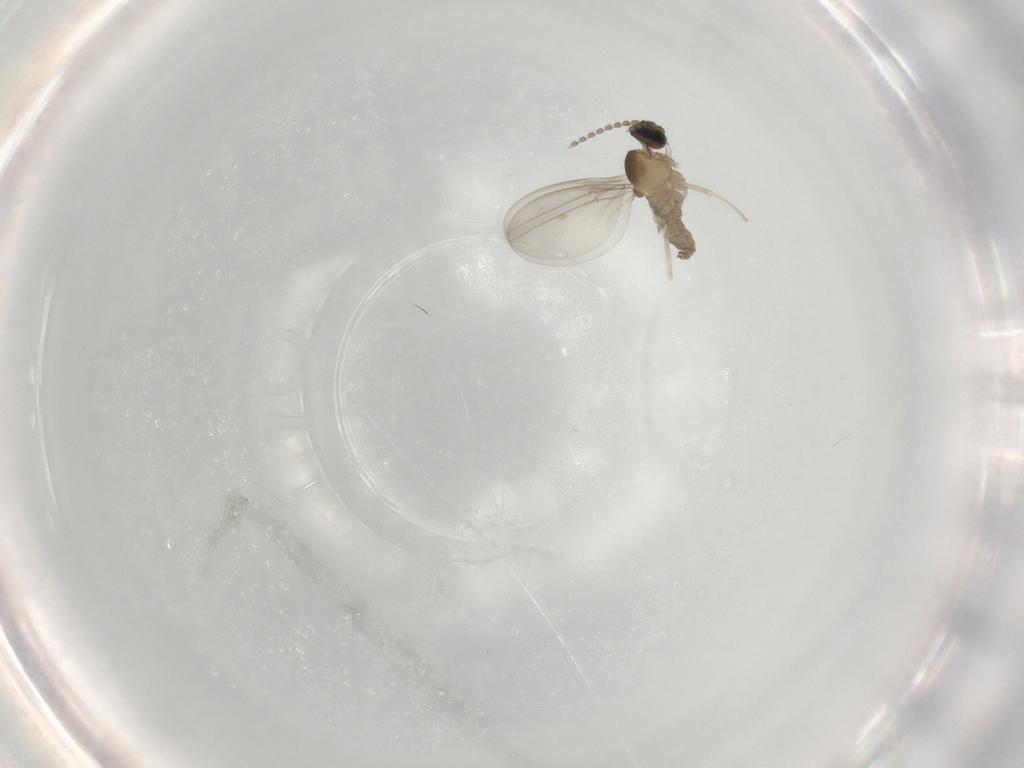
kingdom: Animalia
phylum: Arthropoda
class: Insecta
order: Diptera
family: Cecidomyiidae
